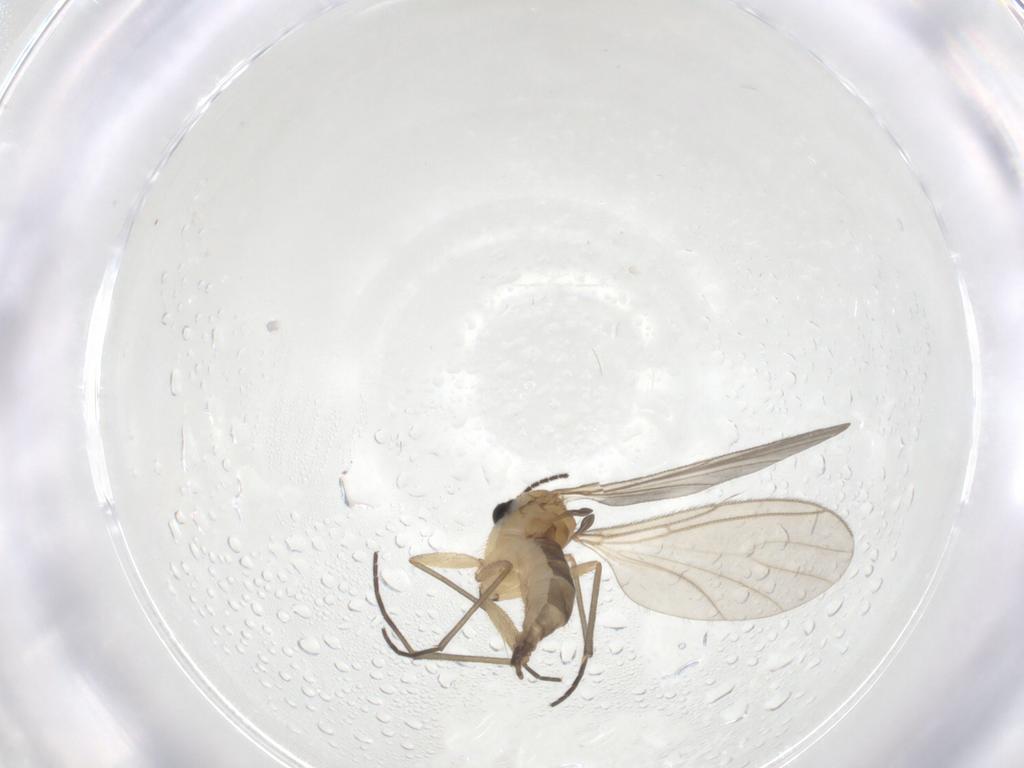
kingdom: Animalia
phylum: Arthropoda
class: Insecta
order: Diptera
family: Sciaridae
